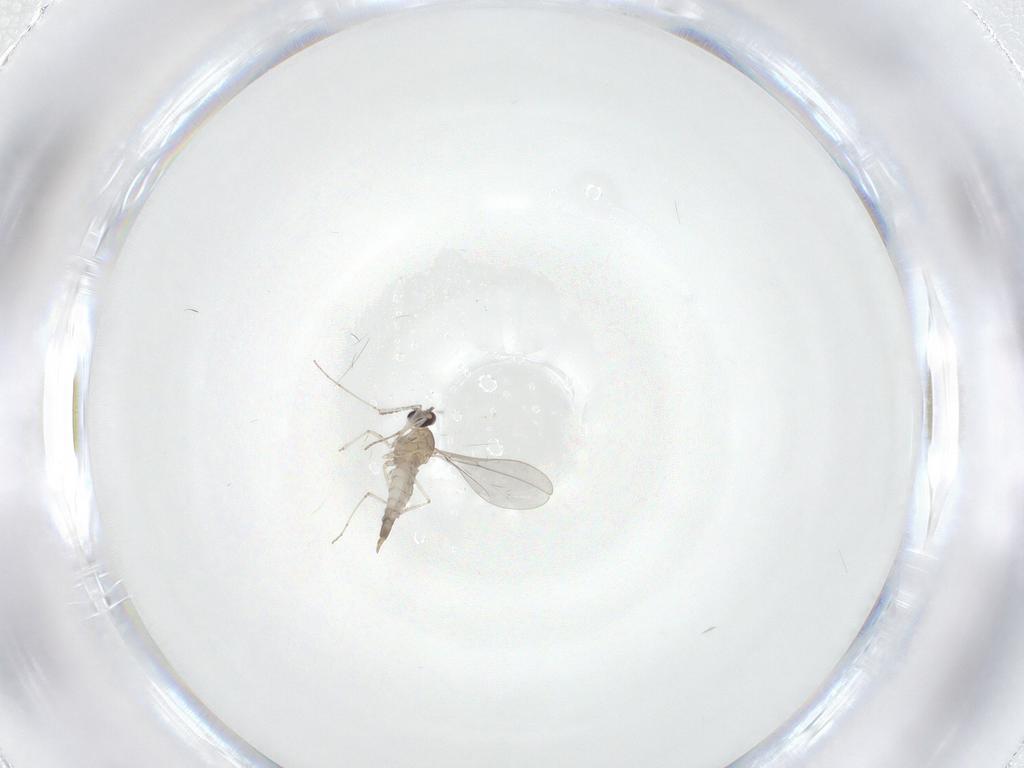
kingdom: Animalia
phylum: Arthropoda
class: Insecta
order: Diptera
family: Cecidomyiidae
